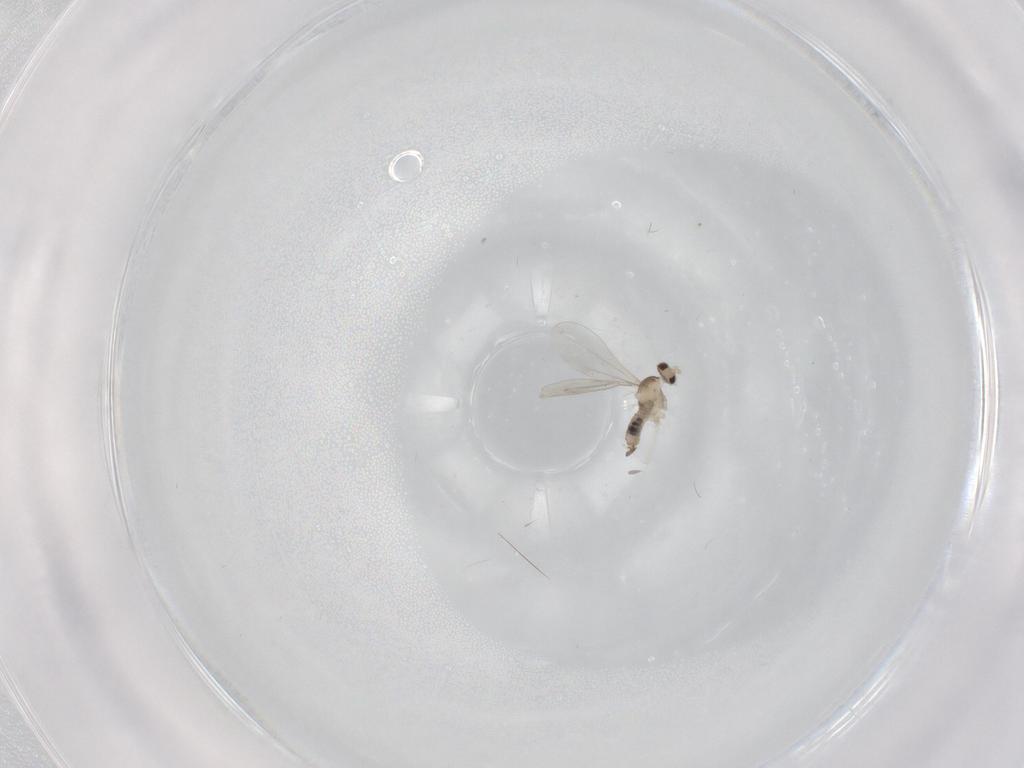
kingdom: Animalia
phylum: Arthropoda
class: Insecta
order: Diptera
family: Cecidomyiidae
